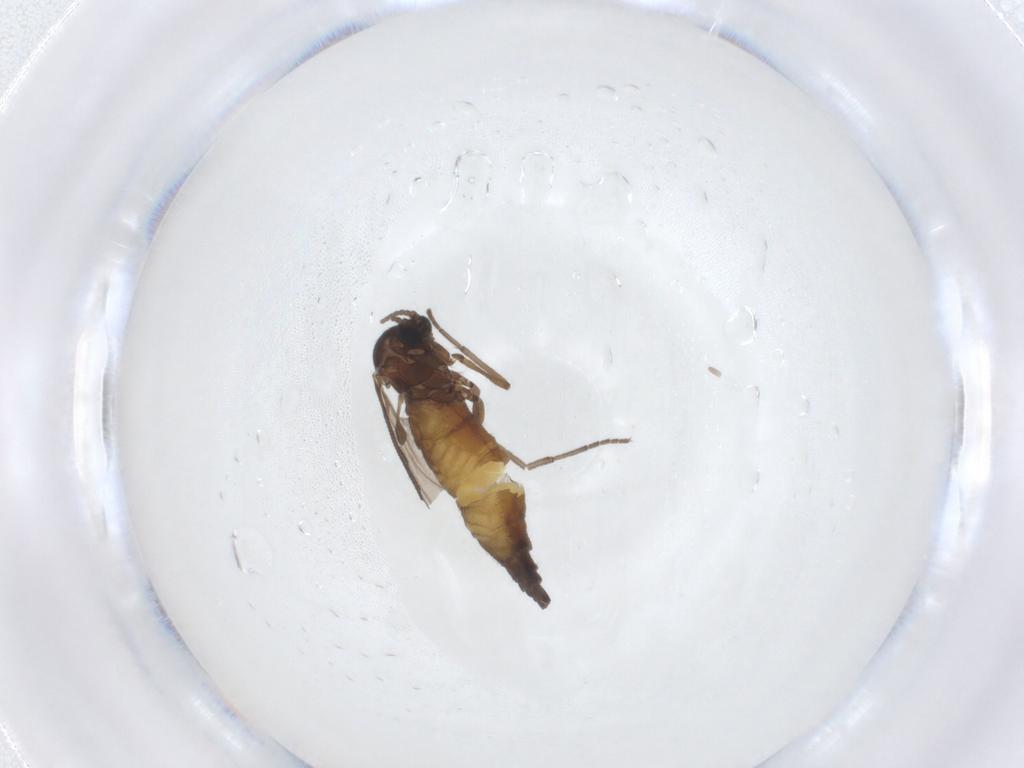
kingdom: Animalia
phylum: Arthropoda
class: Insecta
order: Diptera
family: Sciaridae
